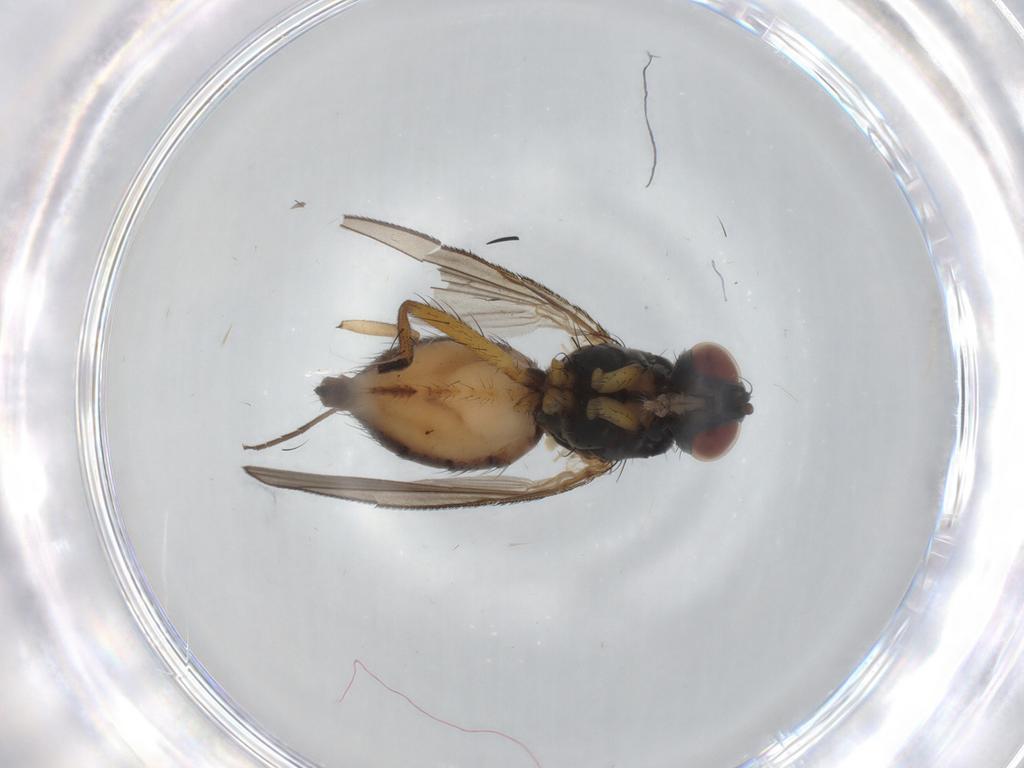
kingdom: Animalia
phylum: Arthropoda
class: Insecta
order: Diptera
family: Muscidae
